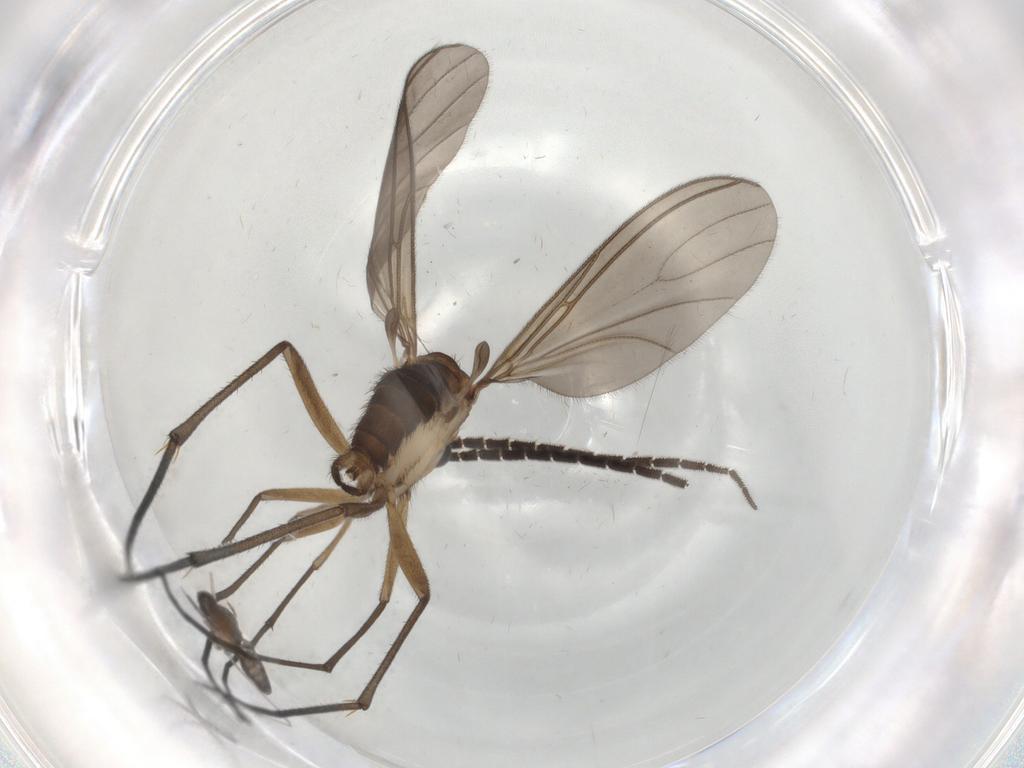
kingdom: Animalia
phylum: Arthropoda
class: Insecta
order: Diptera
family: Cecidomyiidae
